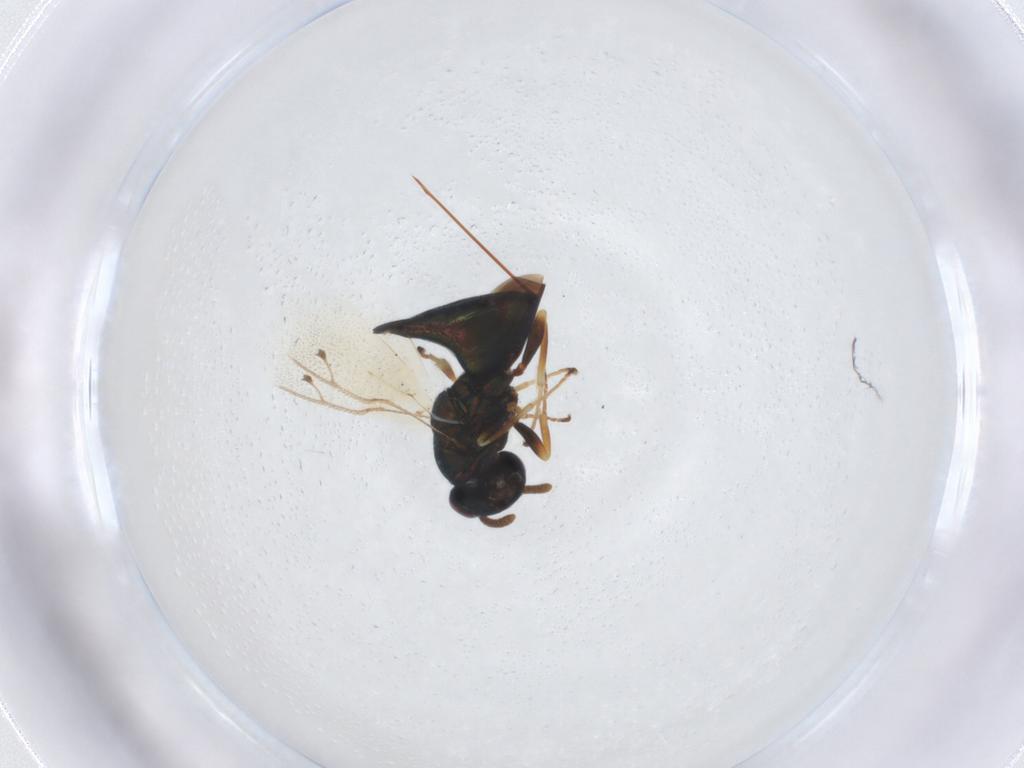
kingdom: Animalia
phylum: Arthropoda
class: Insecta
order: Hymenoptera
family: Pteromalidae
